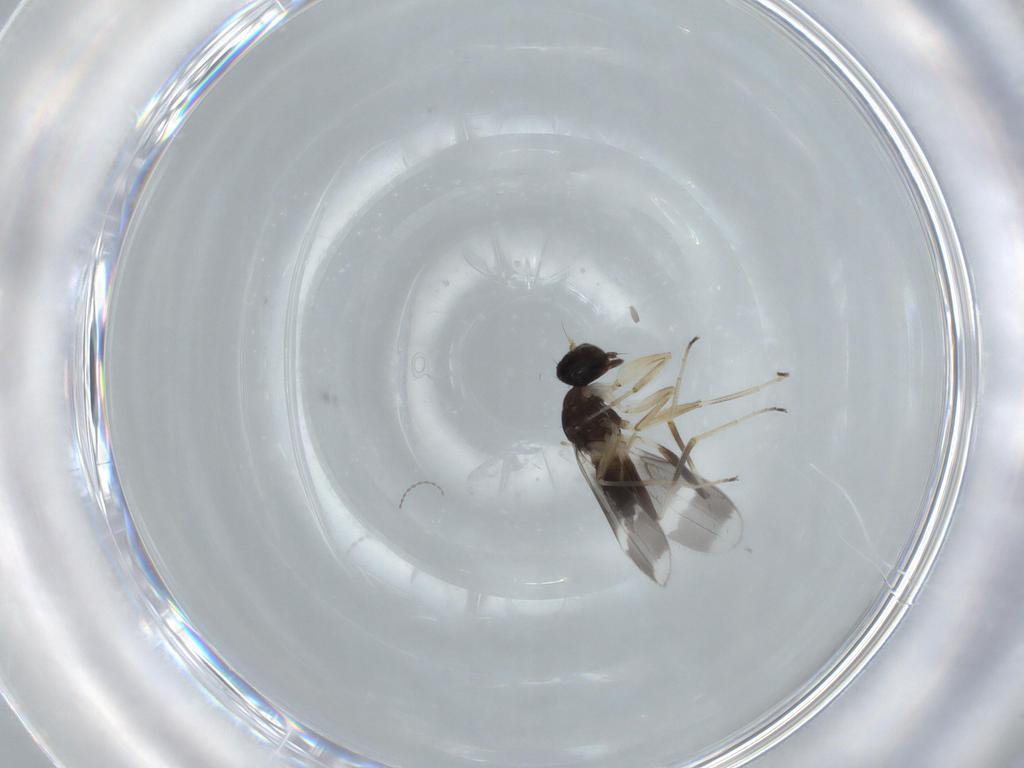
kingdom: Animalia
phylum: Arthropoda
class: Insecta
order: Diptera
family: Hybotidae
